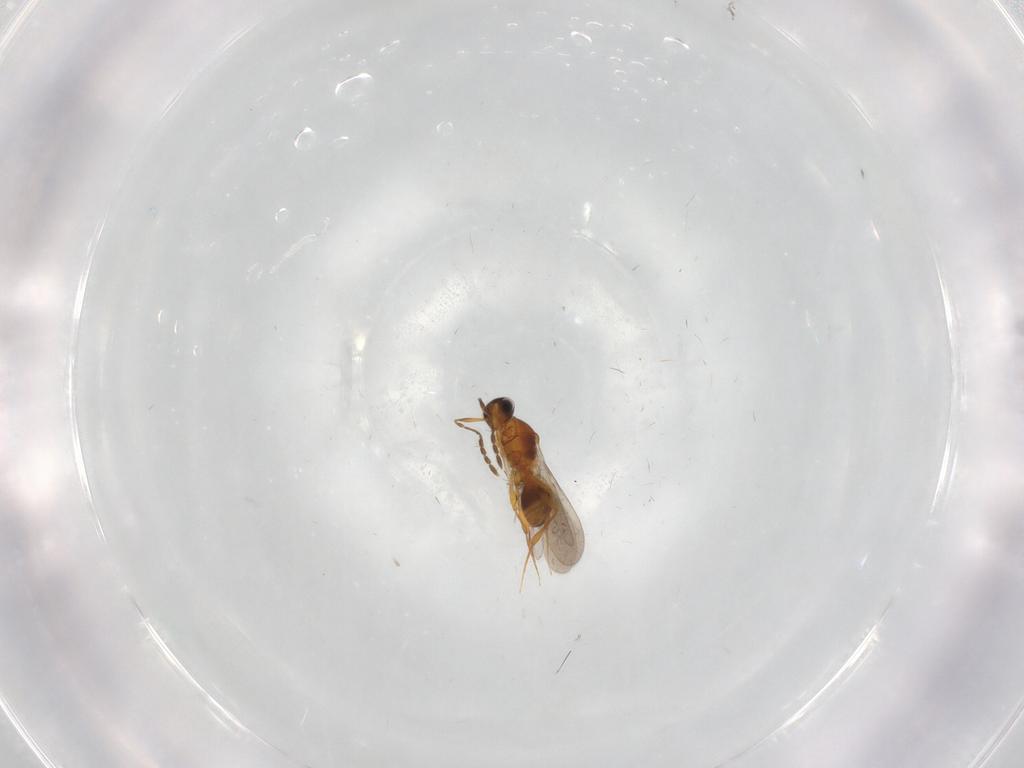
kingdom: Animalia
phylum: Arthropoda
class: Insecta
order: Hymenoptera
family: Platygastridae
